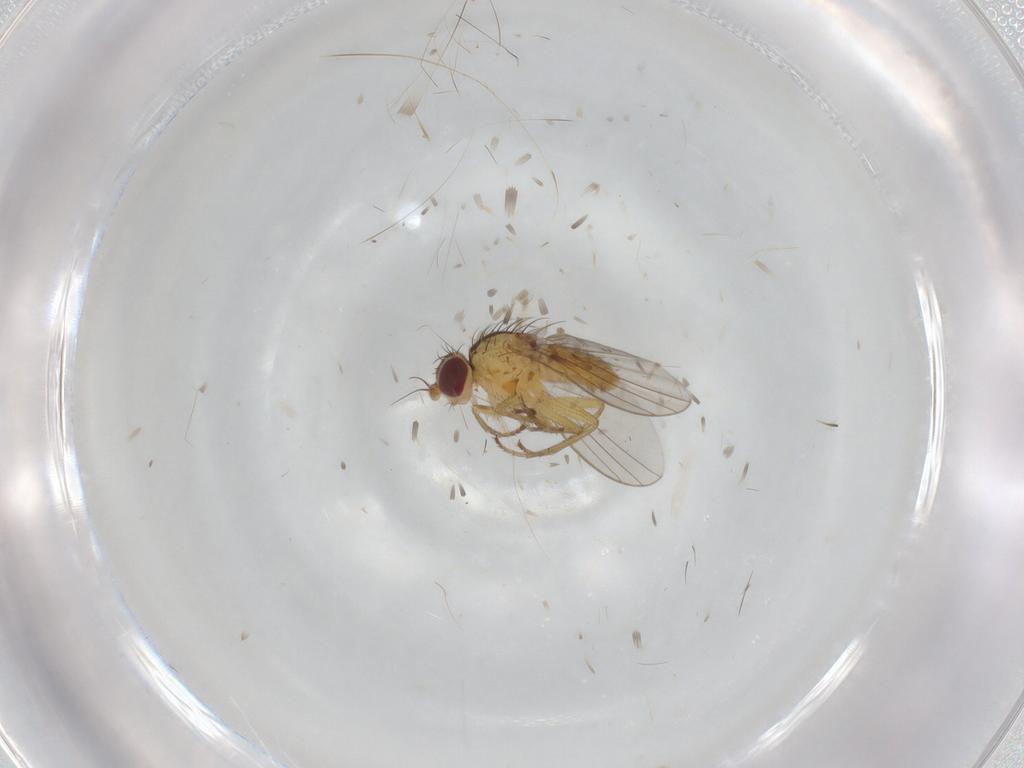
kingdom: Animalia
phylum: Arthropoda
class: Insecta
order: Diptera
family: Agromyzidae
